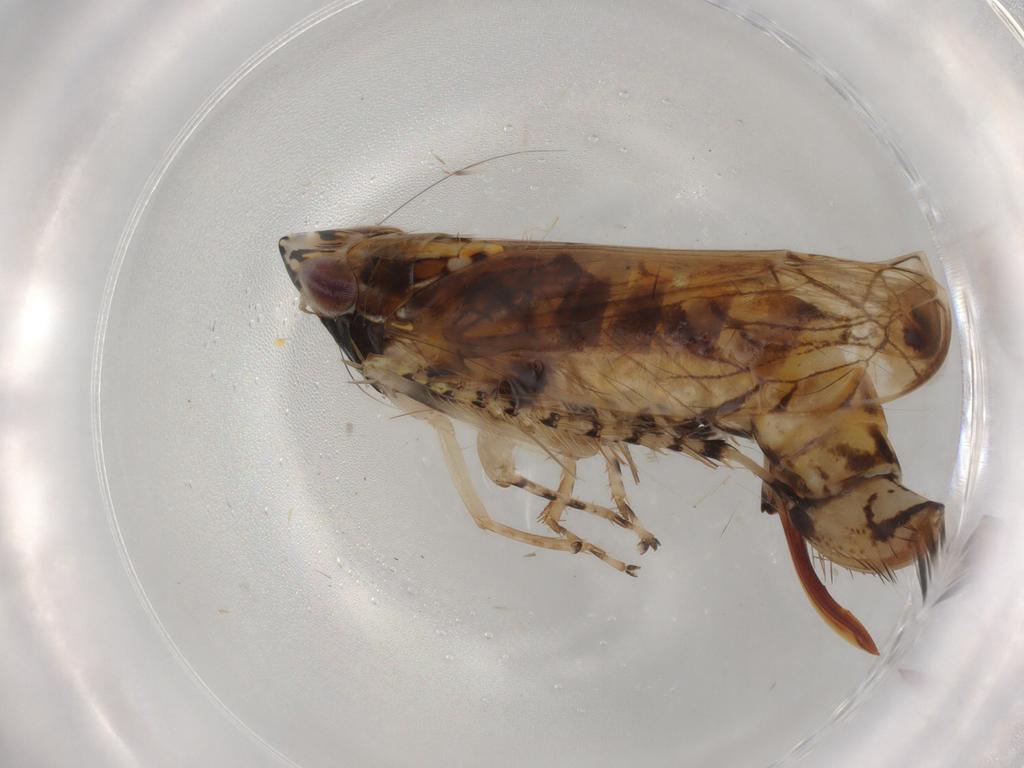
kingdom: Animalia
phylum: Arthropoda
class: Insecta
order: Hemiptera
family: Cicadellidae
